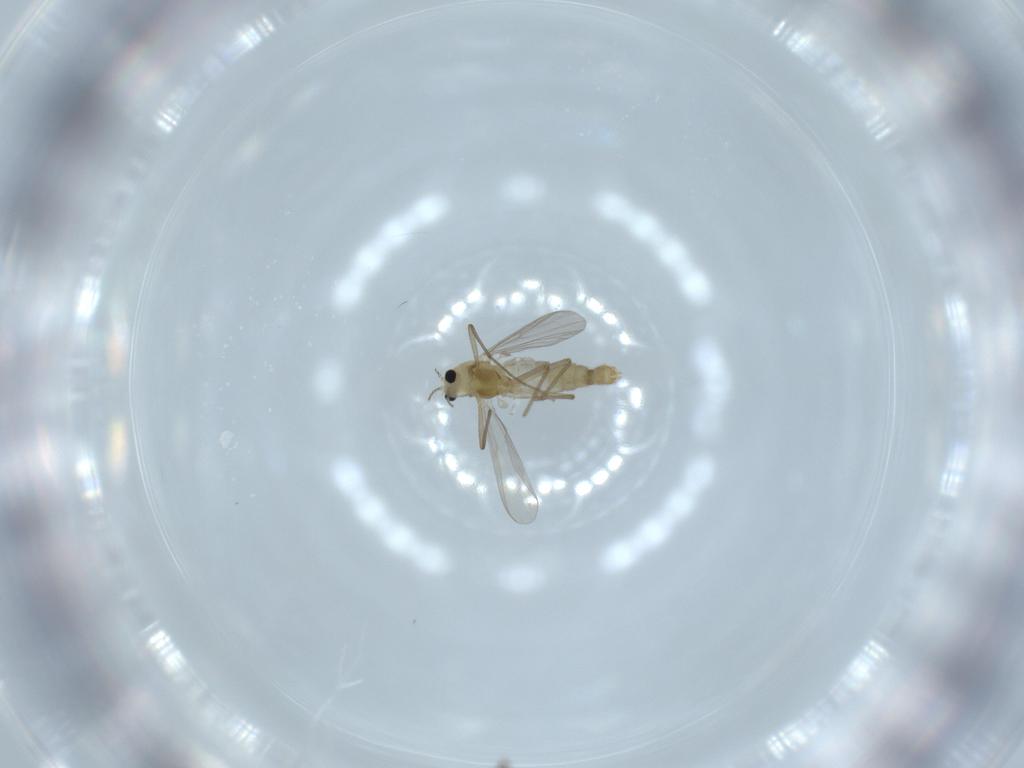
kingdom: Animalia
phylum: Arthropoda
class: Insecta
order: Diptera
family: Chironomidae
